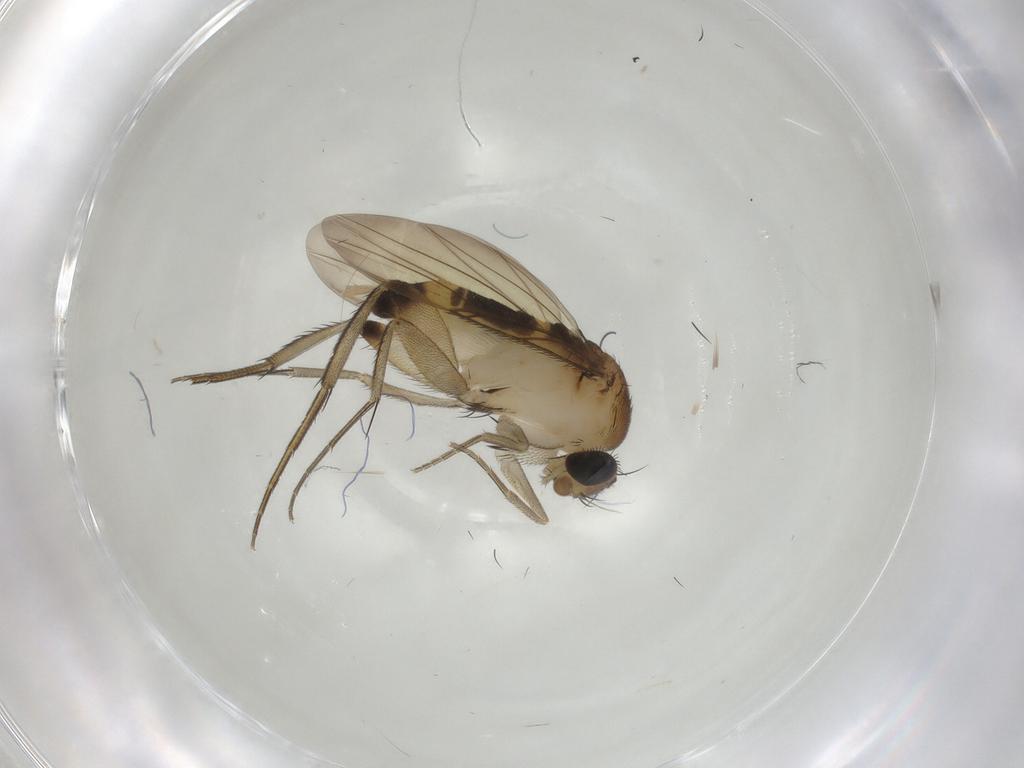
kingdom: Animalia
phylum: Arthropoda
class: Insecta
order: Diptera
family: Phoridae
